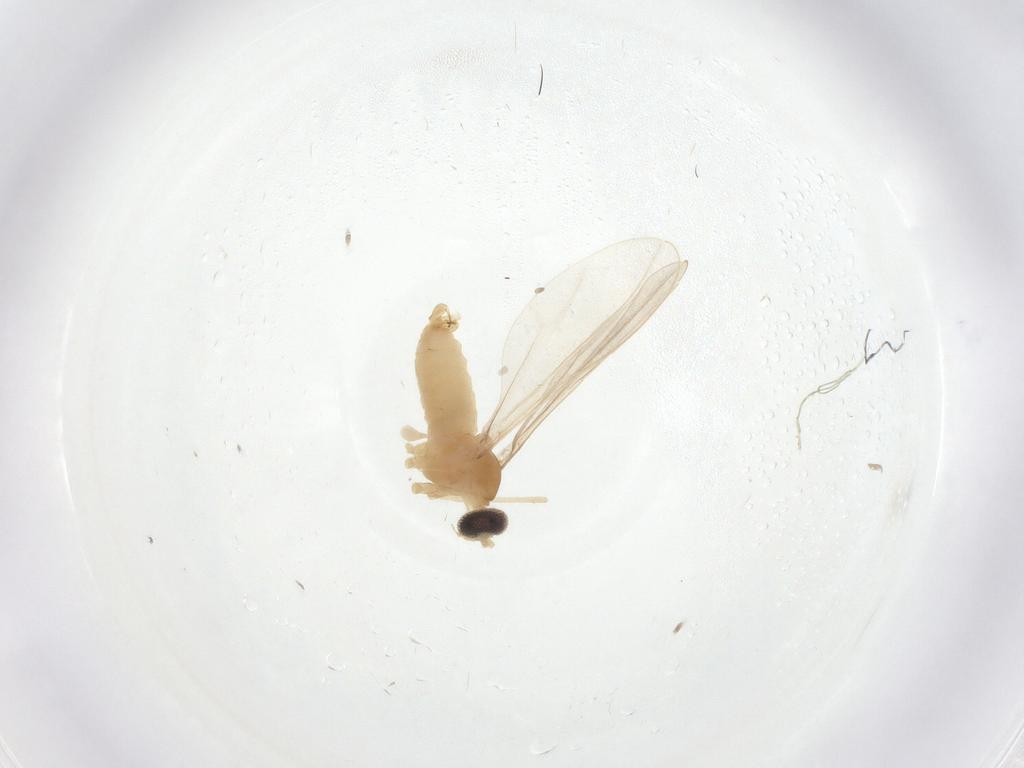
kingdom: Animalia
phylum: Arthropoda
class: Insecta
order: Diptera
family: Cecidomyiidae
